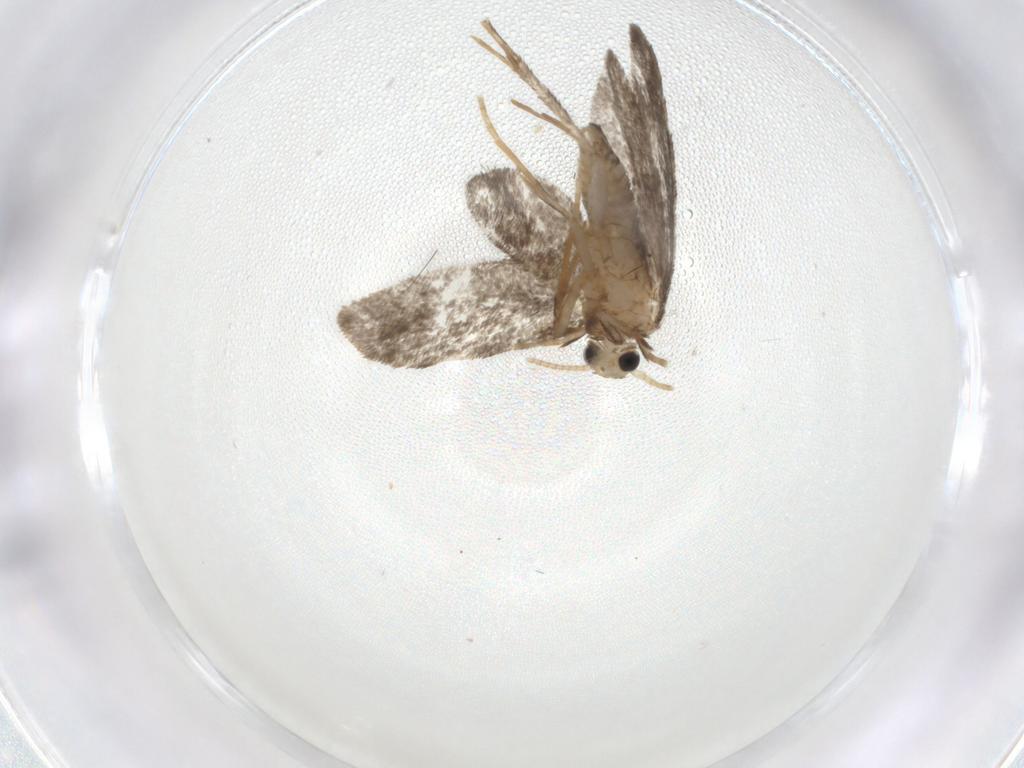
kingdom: Animalia
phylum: Arthropoda
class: Insecta
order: Lepidoptera
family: Psychidae
